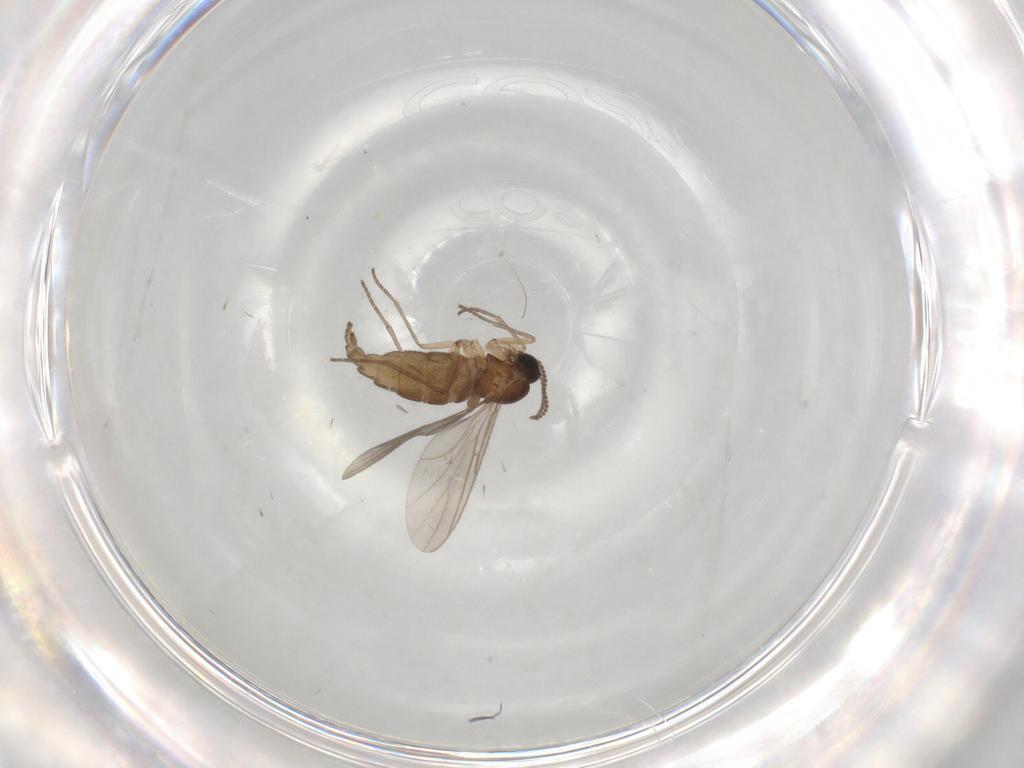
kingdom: Animalia
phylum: Arthropoda
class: Insecta
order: Diptera
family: Sciaridae
